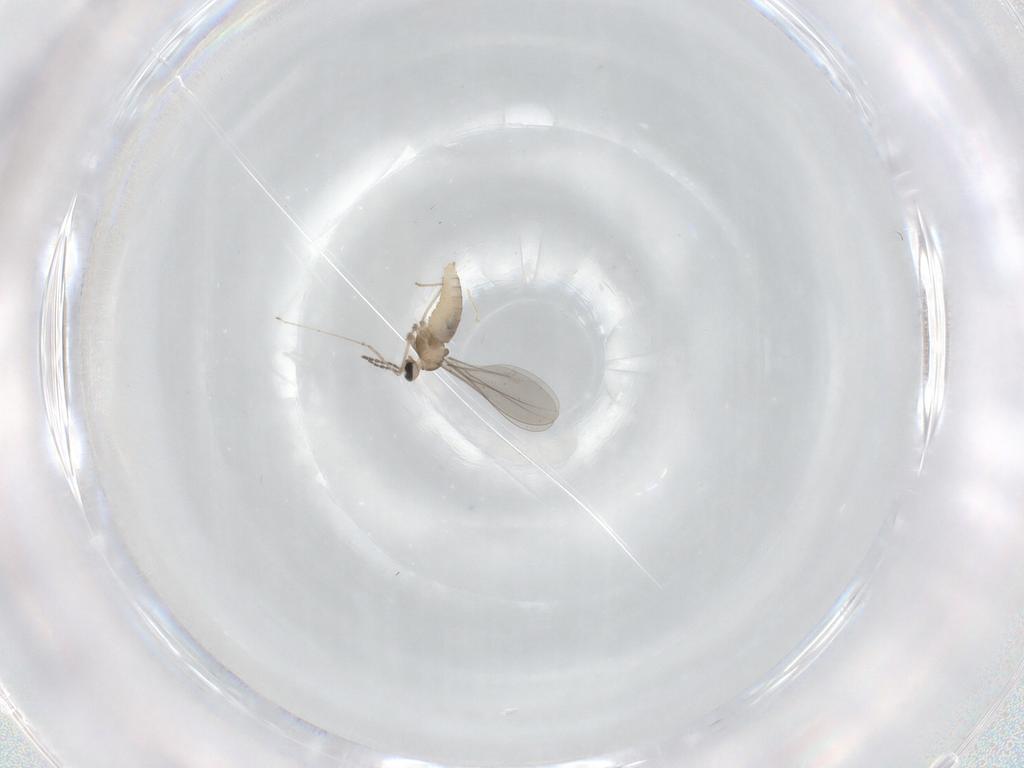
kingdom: Animalia
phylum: Arthropoda
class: Insecta
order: Diptera
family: Cecidomyiidae
